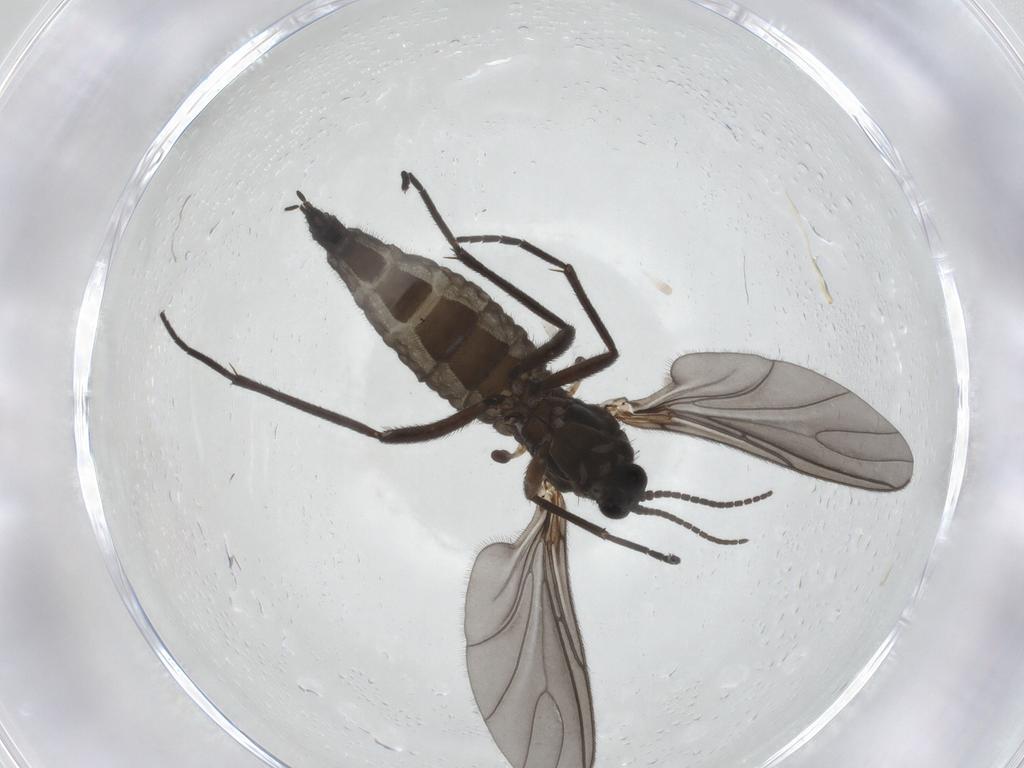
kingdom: Animalia
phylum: Arthropoda
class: Insecta
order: Diptera
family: Sciaridae
